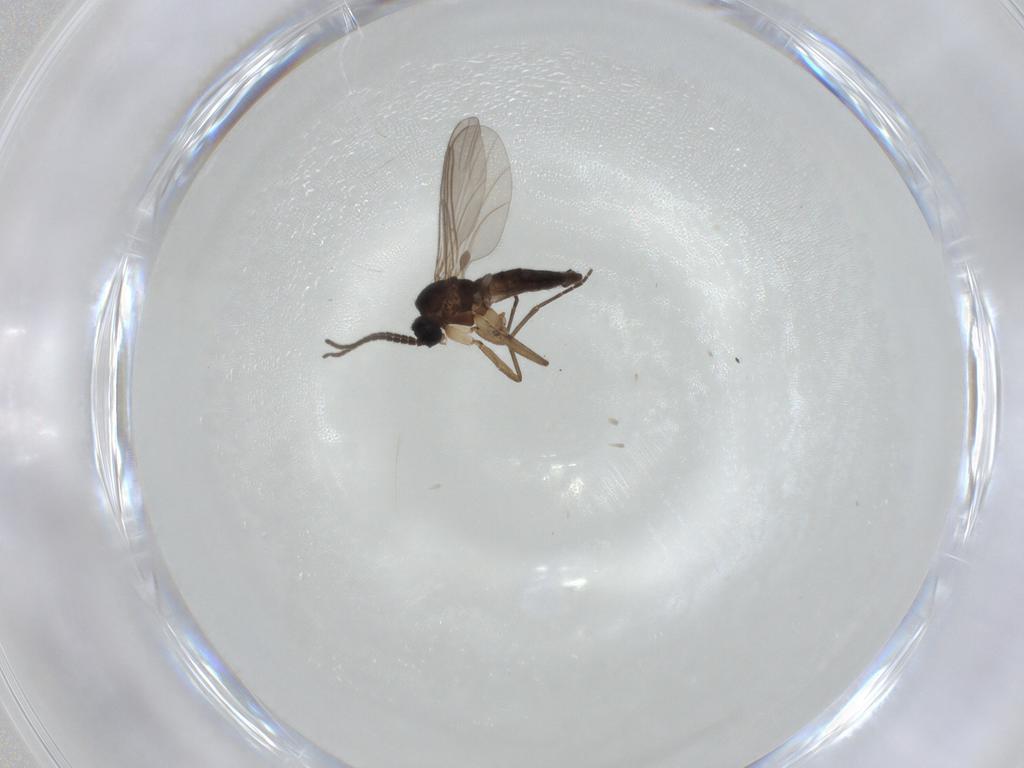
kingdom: Animalia
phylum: Arthropoda
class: Insecta
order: Diptera
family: Sciaridae
